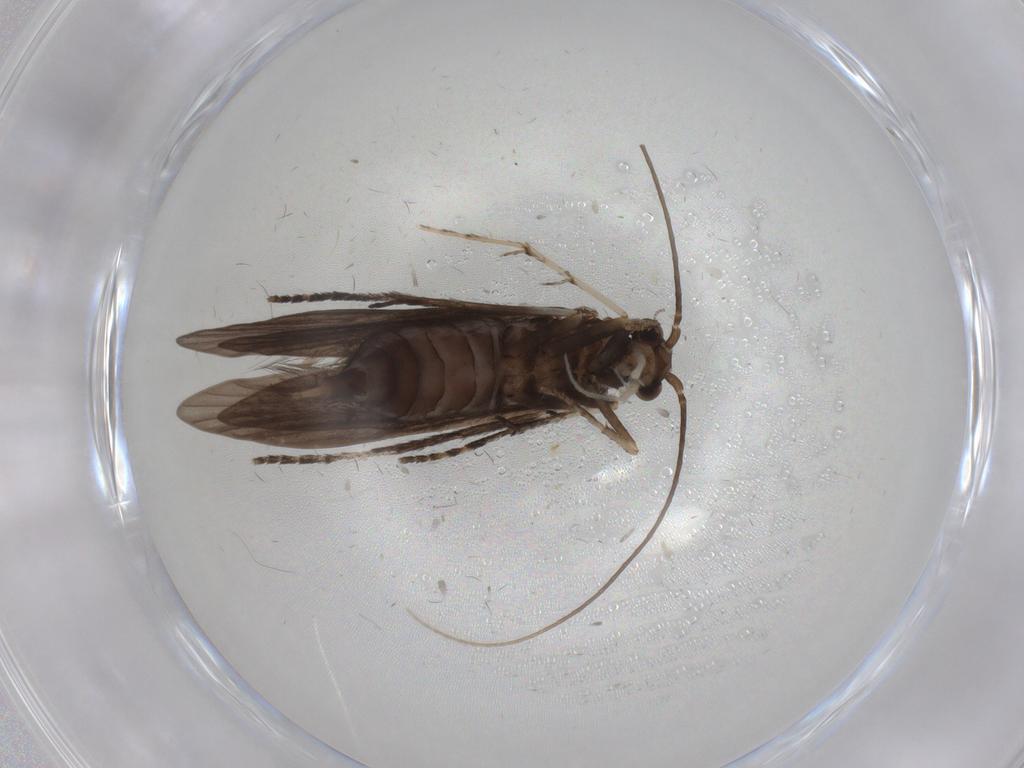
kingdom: Animalia
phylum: Arthropoda
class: Insecta
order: Trichoptera
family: Xiphocentronidae
